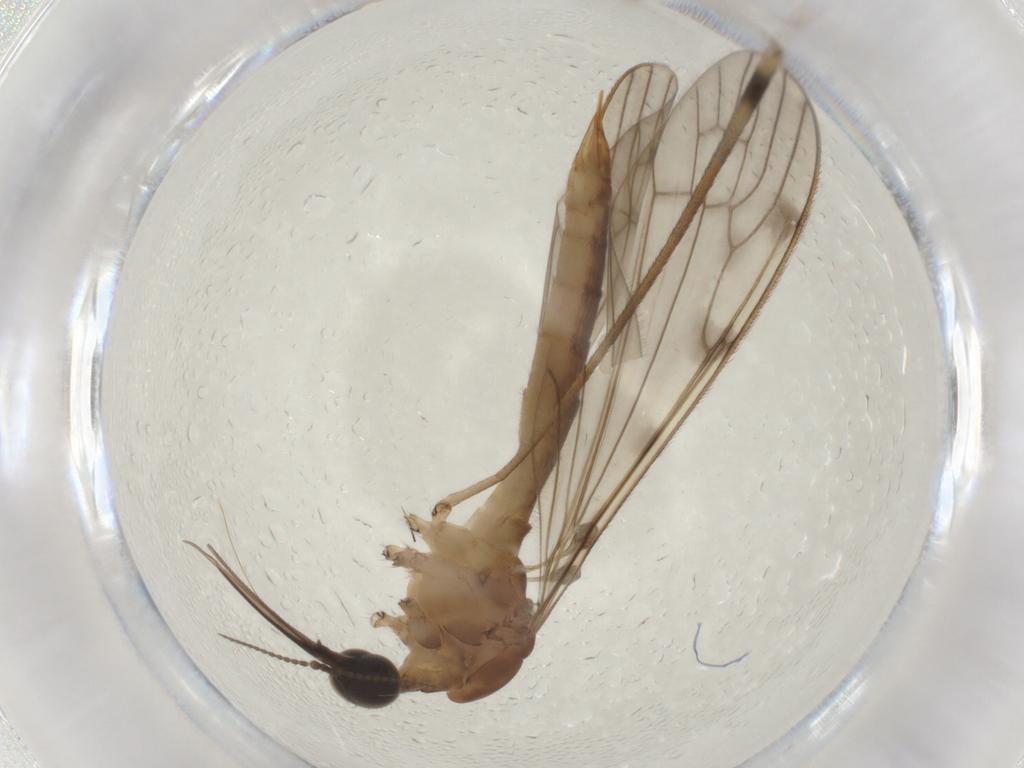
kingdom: Animalia
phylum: Arthropoda
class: Insecta
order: Diptera
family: Limoniidae
